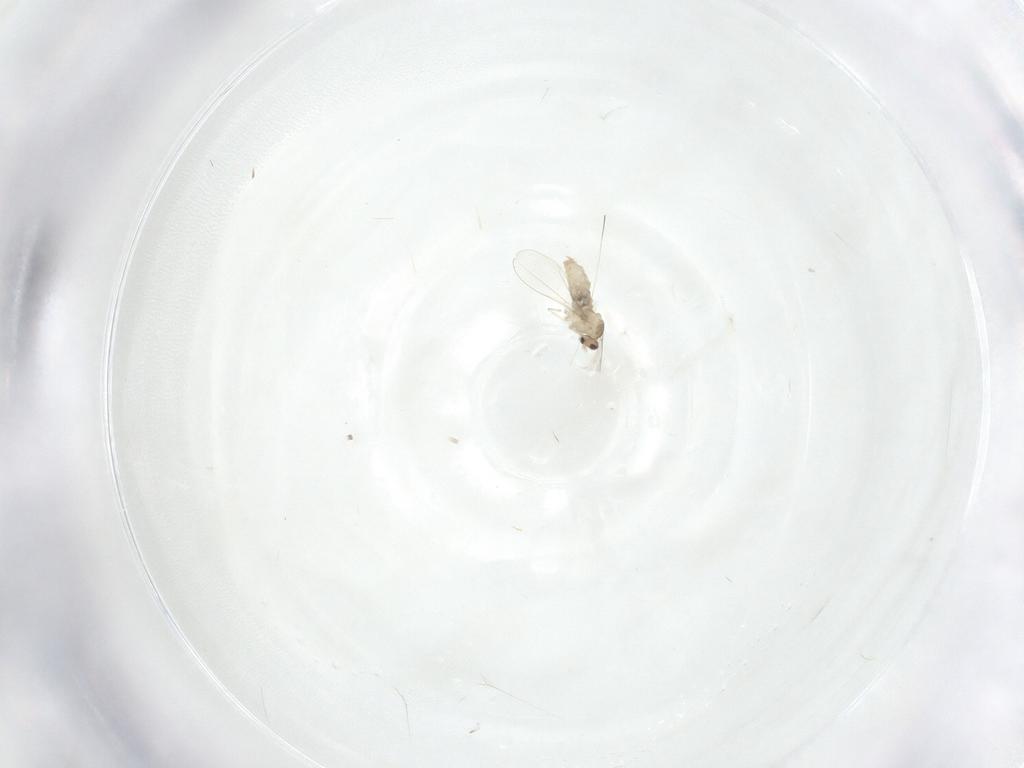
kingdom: Animalia
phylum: Arthropoda
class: Insecta
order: Diptera
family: Cecidomyiidae
